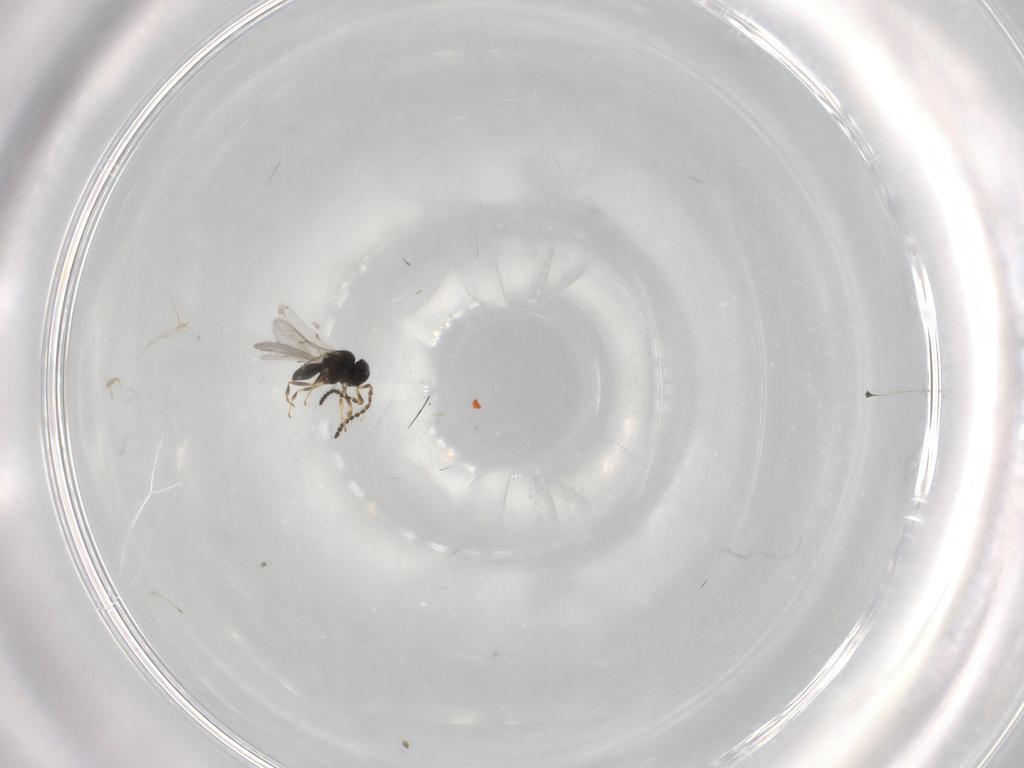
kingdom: Animalia
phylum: Arthropoda
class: Insecta
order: Hymenoptera
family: Scelionidae
